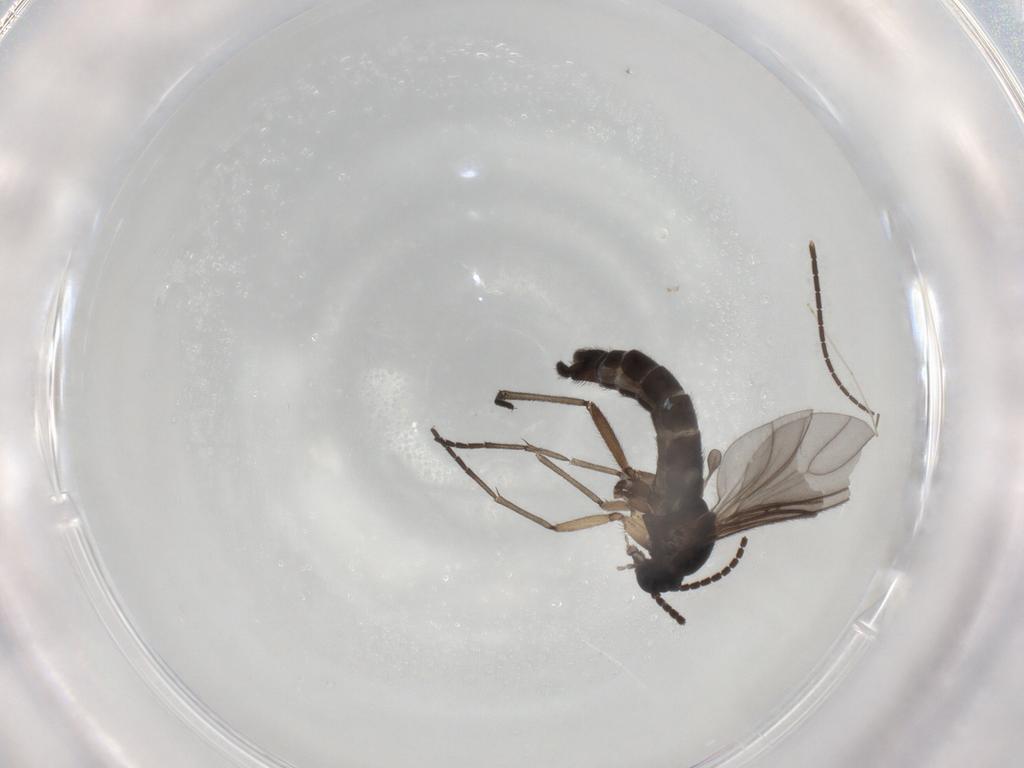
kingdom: Animalia
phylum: Arthropoda
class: Insecta
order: Diptera
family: Sciaridae
